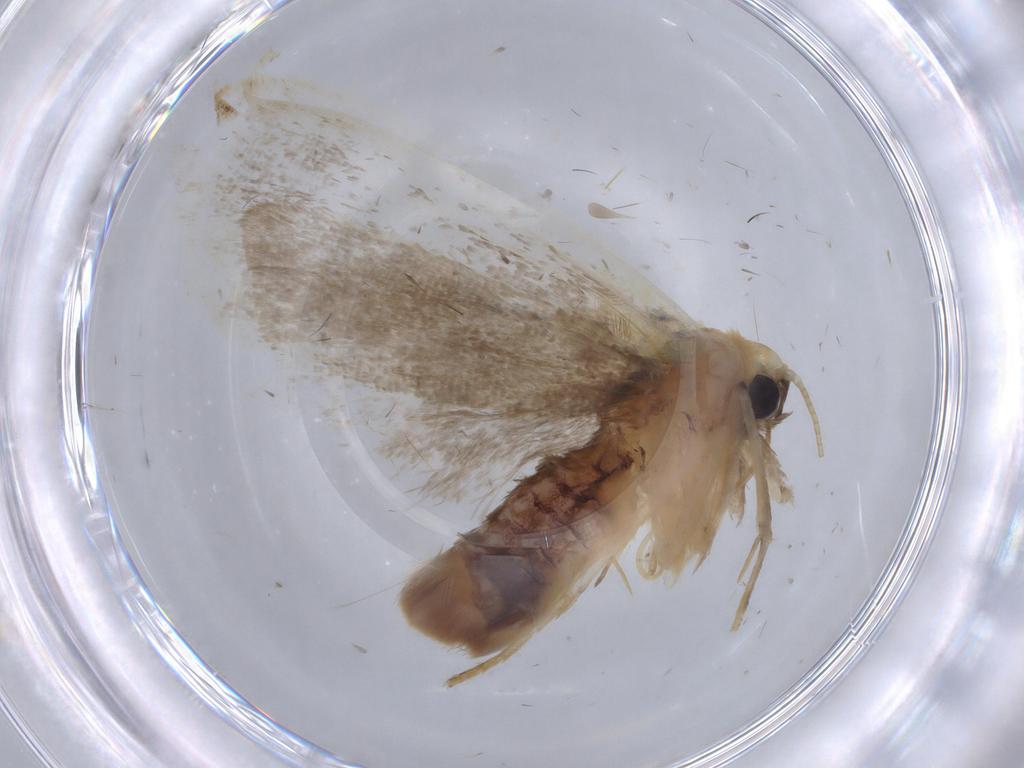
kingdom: Animalia
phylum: Arthropoda
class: Insecta
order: Lepidoptera
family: Nolidae
